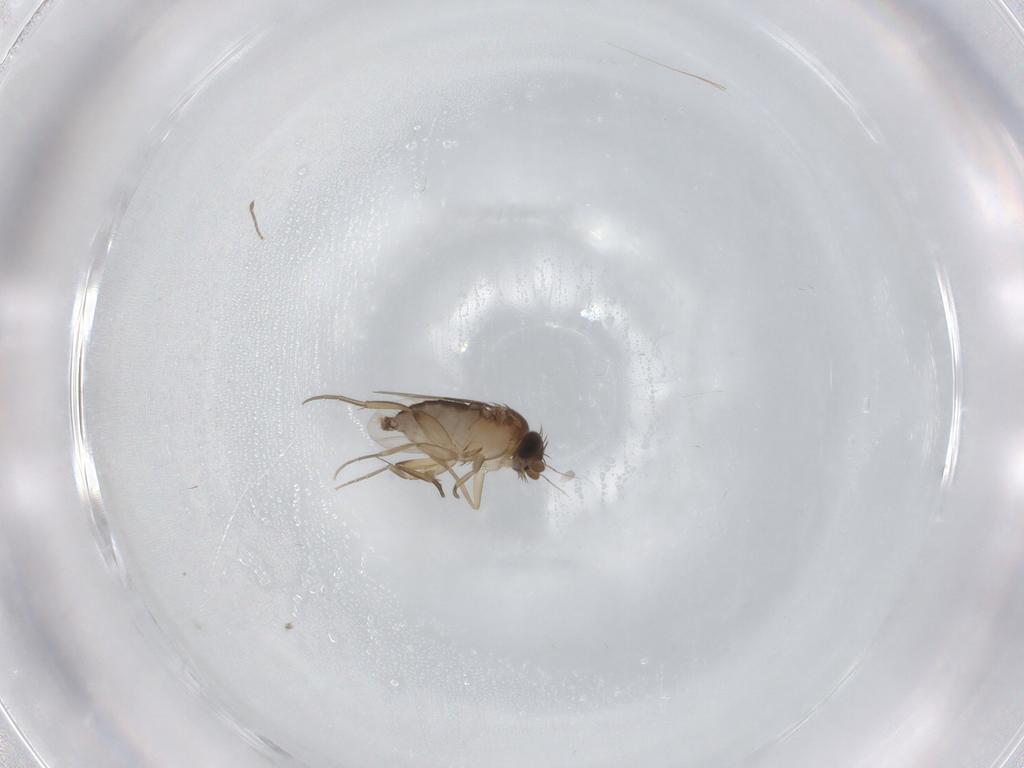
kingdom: Animalia
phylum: Arthropoda
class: Insecta
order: Diptera
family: Phoridae
